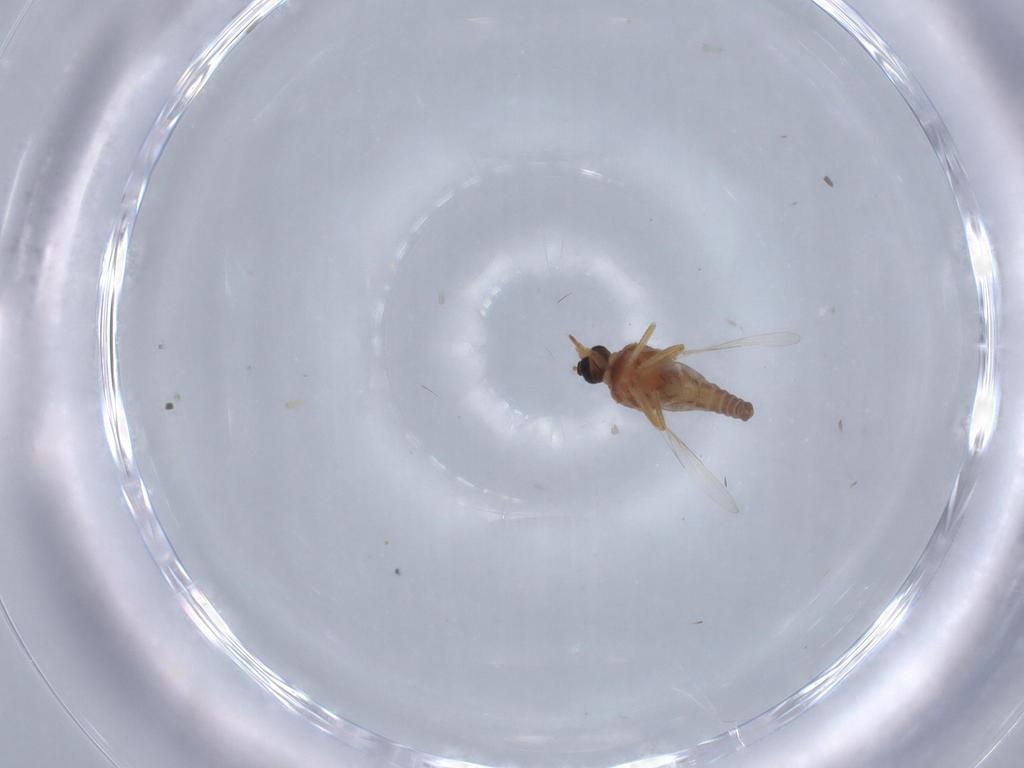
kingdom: Animalia
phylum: Arthropoda
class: Insecta
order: Diptera
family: Ceratopogonidae
